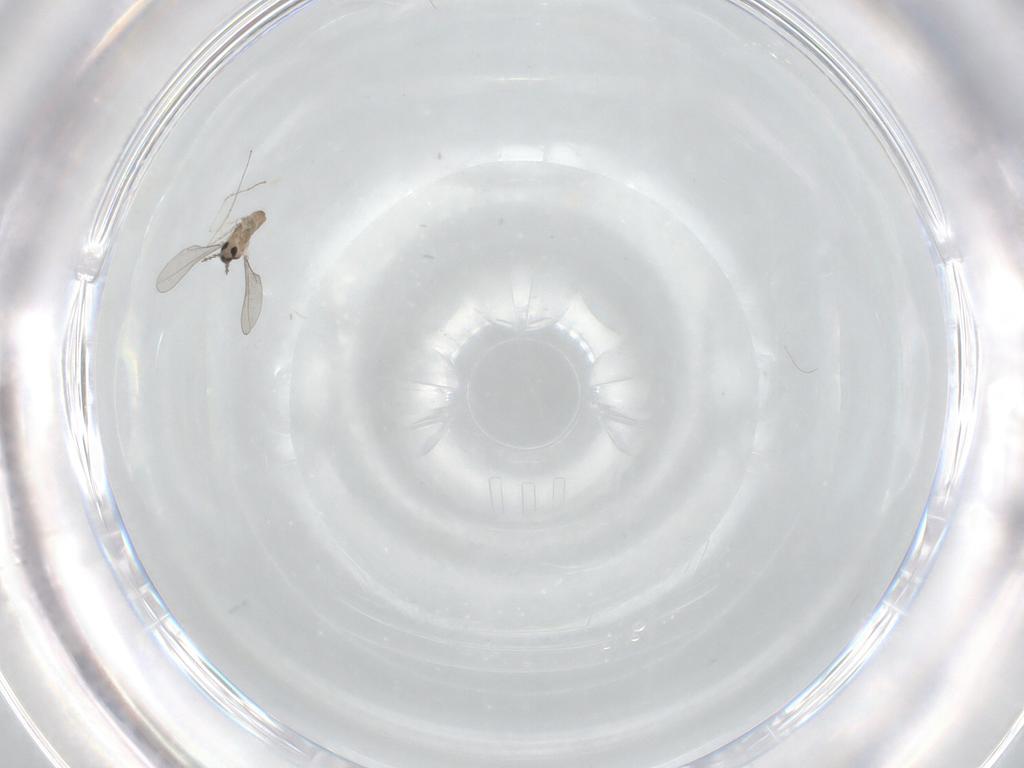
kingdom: Animalia
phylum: Arthropoda
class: Insecta
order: Diptera
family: Cecidomyiidae
